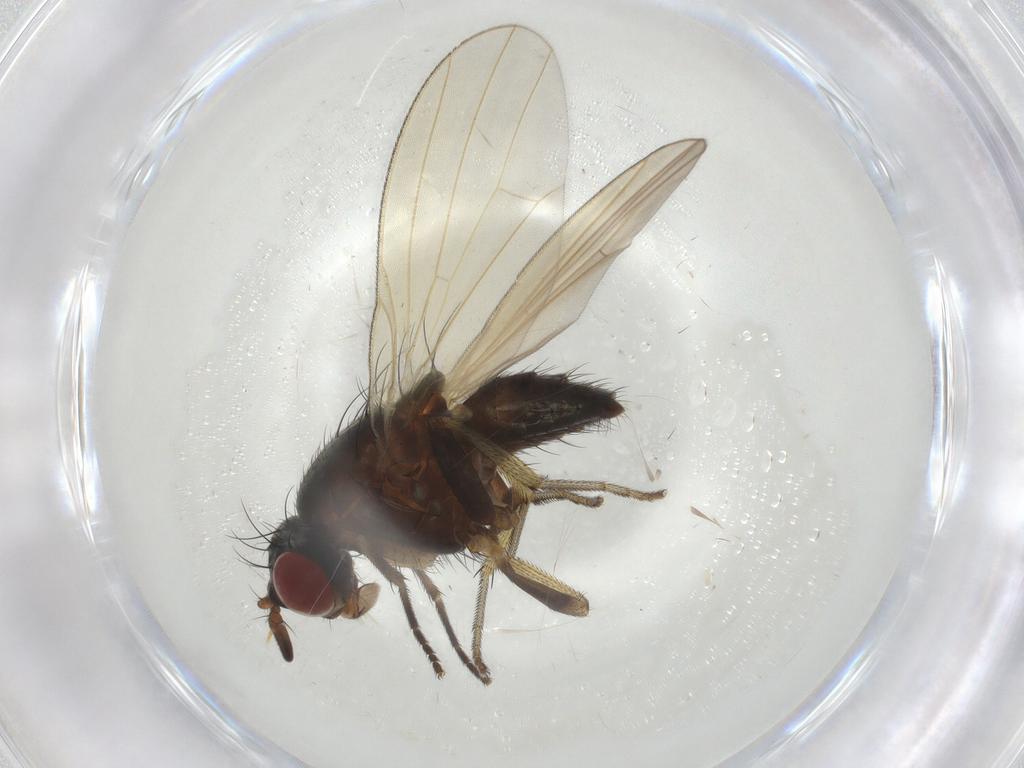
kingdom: Animalia
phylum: Arthropoda
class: Insecta
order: Diptera
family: Lauxaniidae
